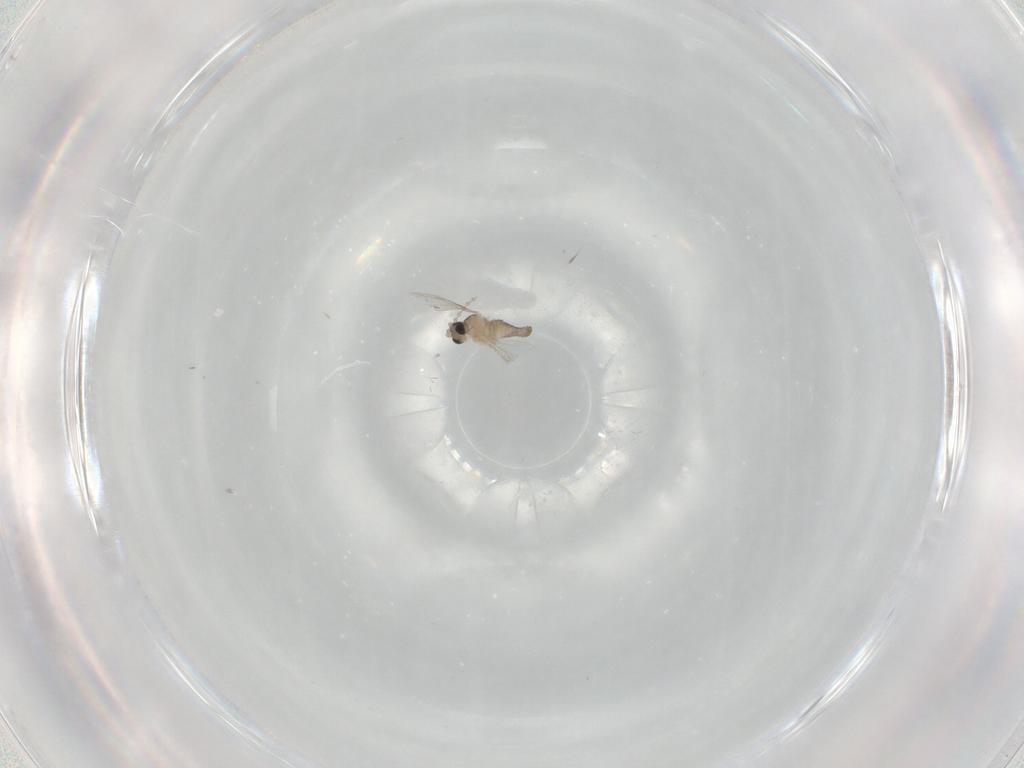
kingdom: Animalia
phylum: Arthropoda
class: Insecta
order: Diptera
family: Cecidomyiidae
